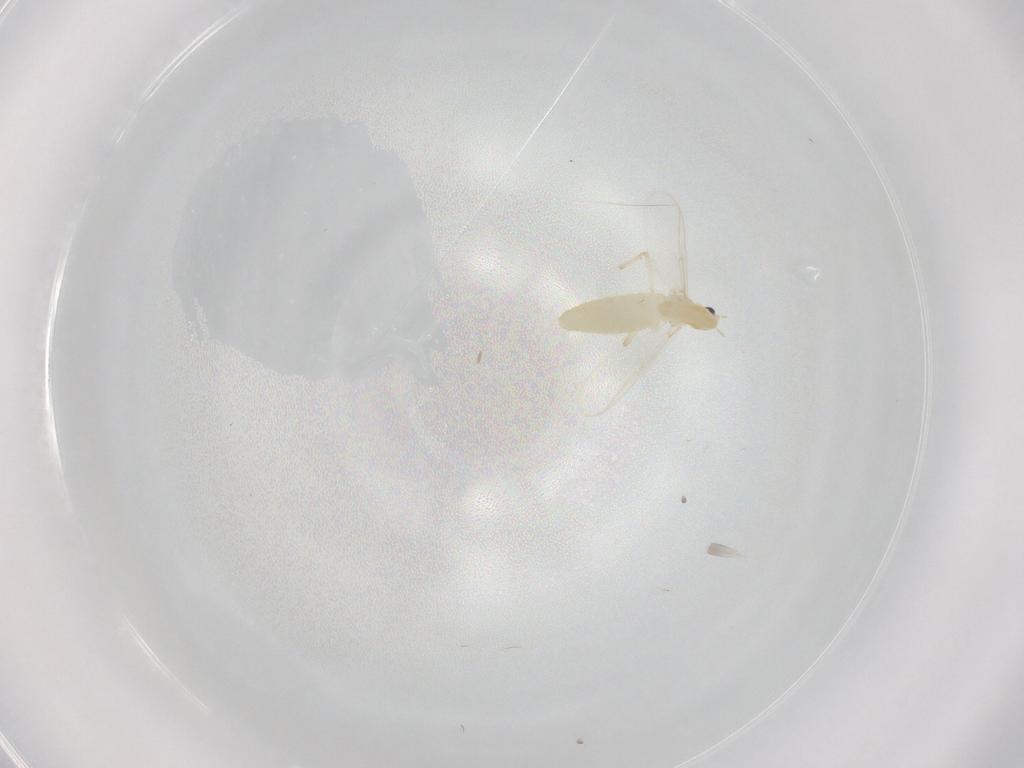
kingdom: Animalia
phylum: Arthropoda
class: Insecta
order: Diptera
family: Chironomidae
